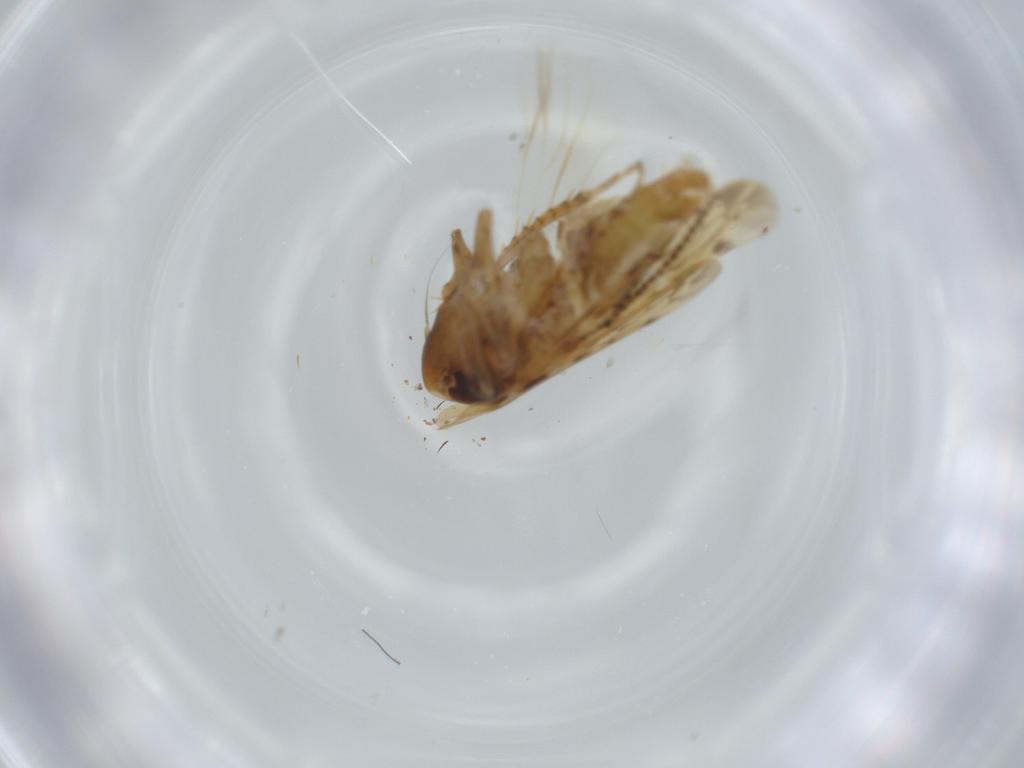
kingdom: Animalia
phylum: Arthropoda
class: Insecta
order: Hemiptera
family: Cicadellidae
